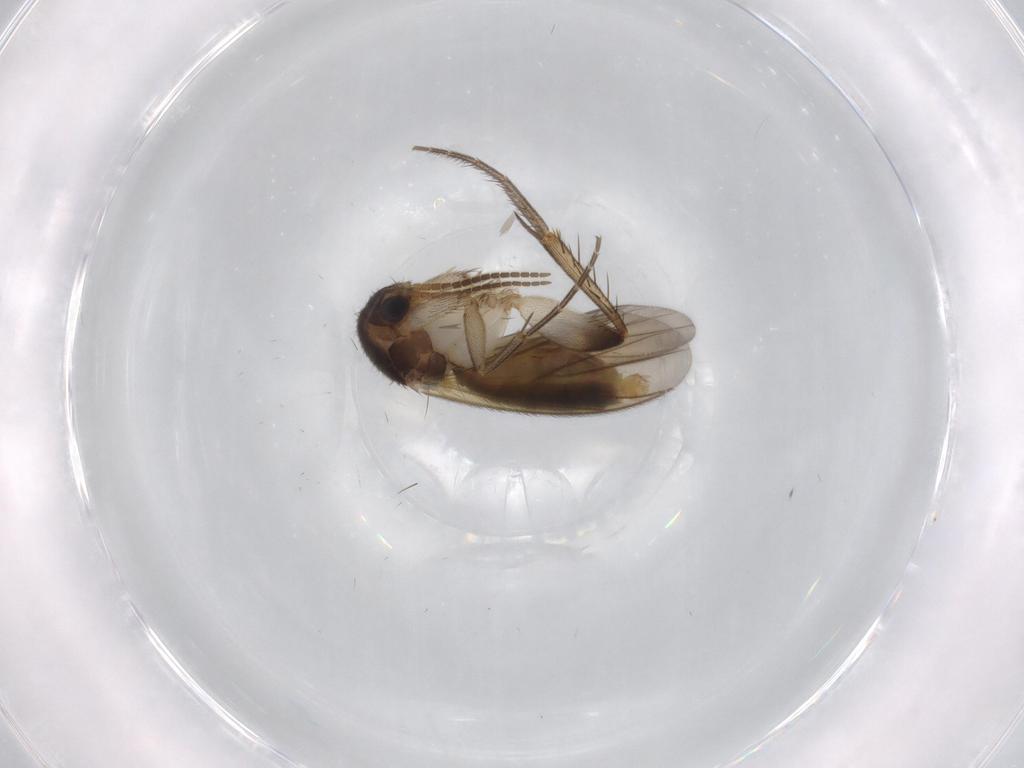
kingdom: Animalia
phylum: Arthropoda
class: Insecta
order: Diptera
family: Mycetophilidae
